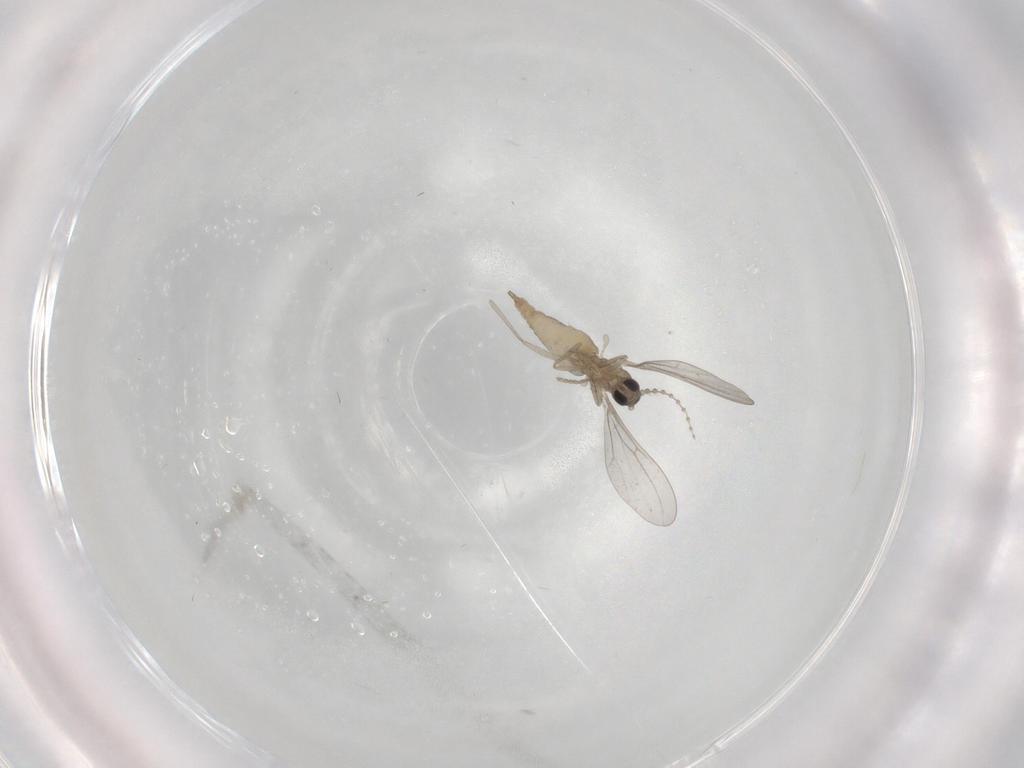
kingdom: Animalia
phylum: Arthropoda
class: Insecta
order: Diptera
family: Cecidomyiidae
